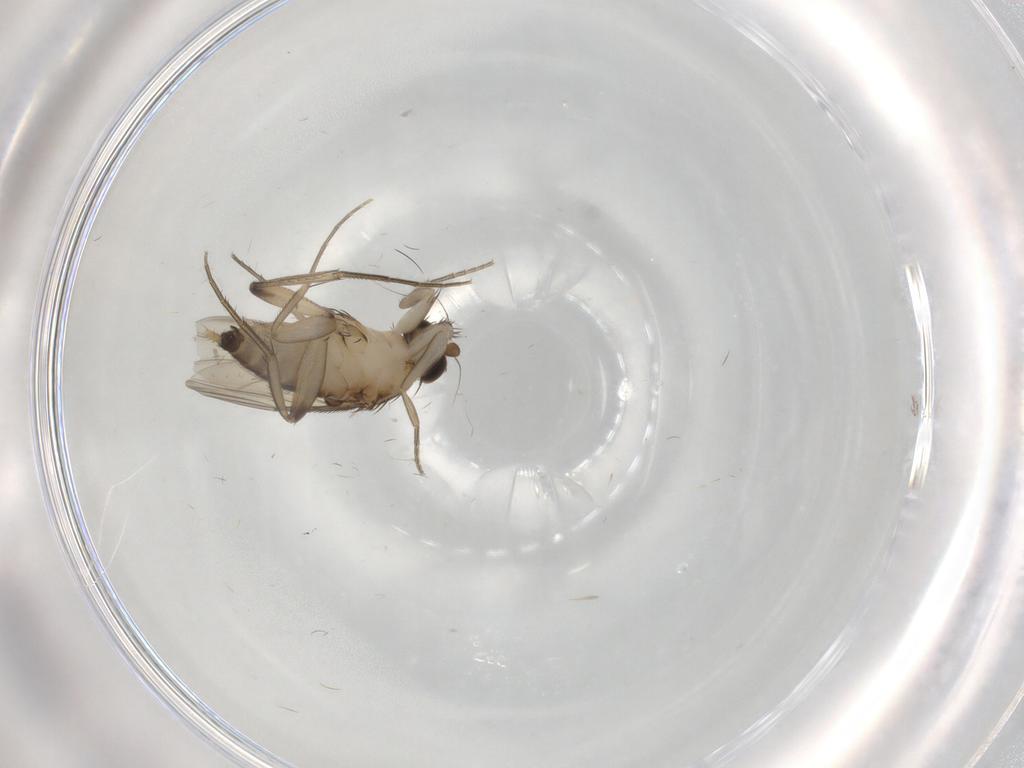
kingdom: Animalia
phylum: Arthropoda
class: Insecta
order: Diptera
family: Phoridae
